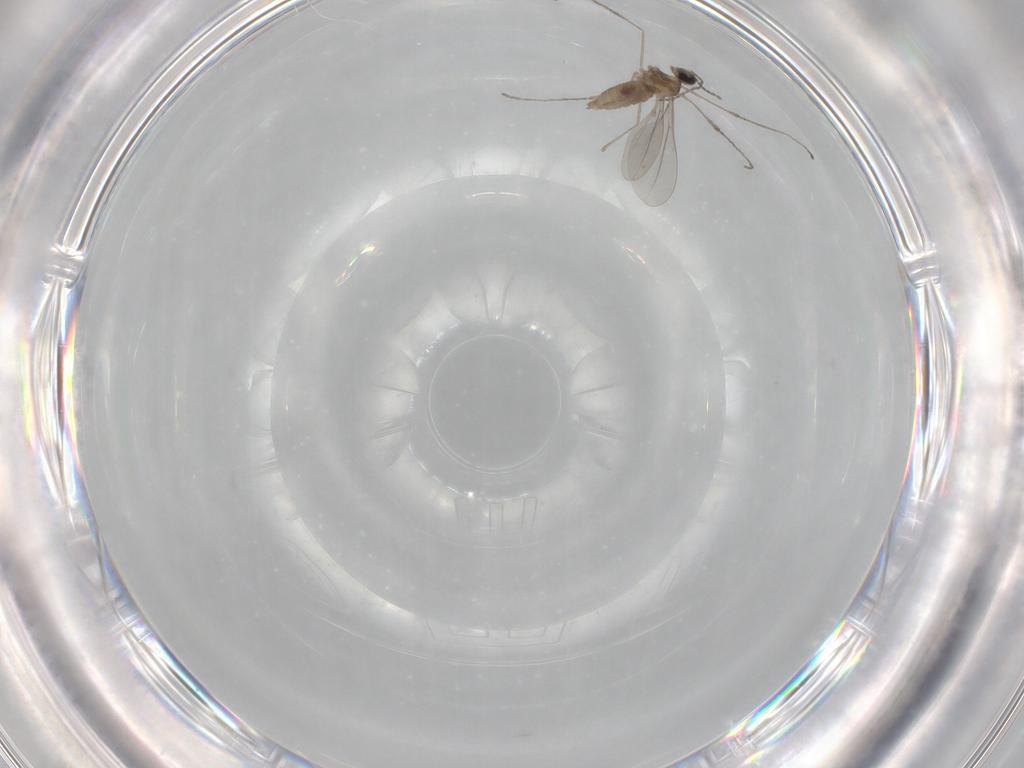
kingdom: Animalia
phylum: Arthropoda
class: Insecta
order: Diptera
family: Cecidomyiidae
